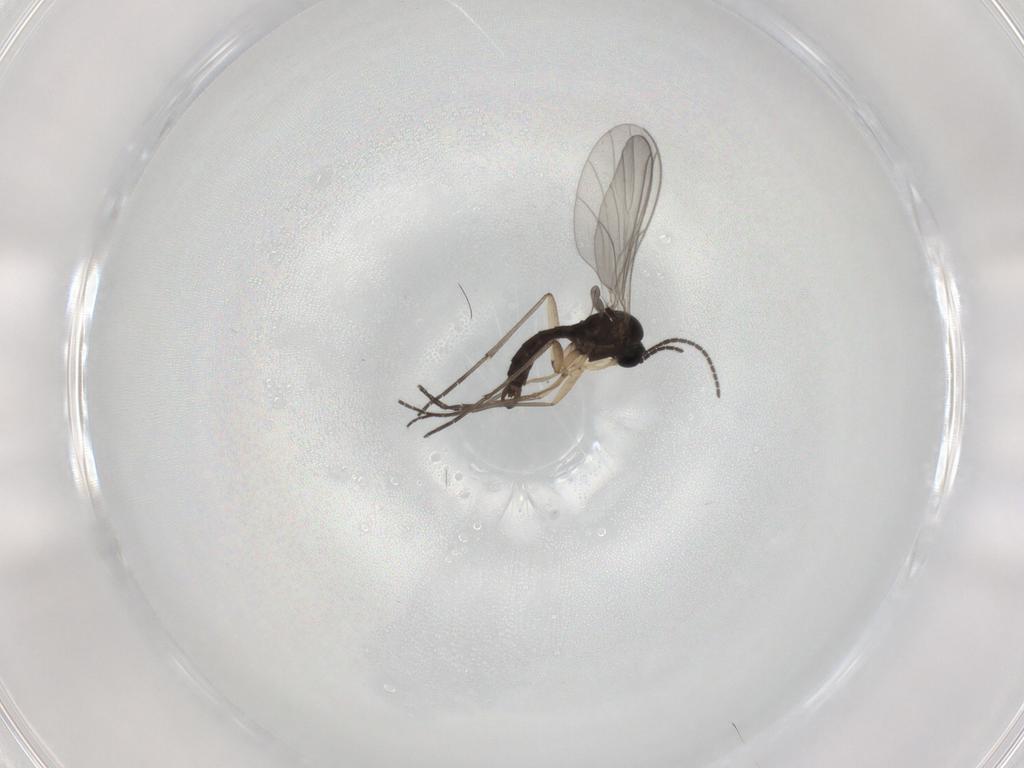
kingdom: Animalia
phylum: Arthropoda
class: Insecta
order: Diptera
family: Sciaridae
